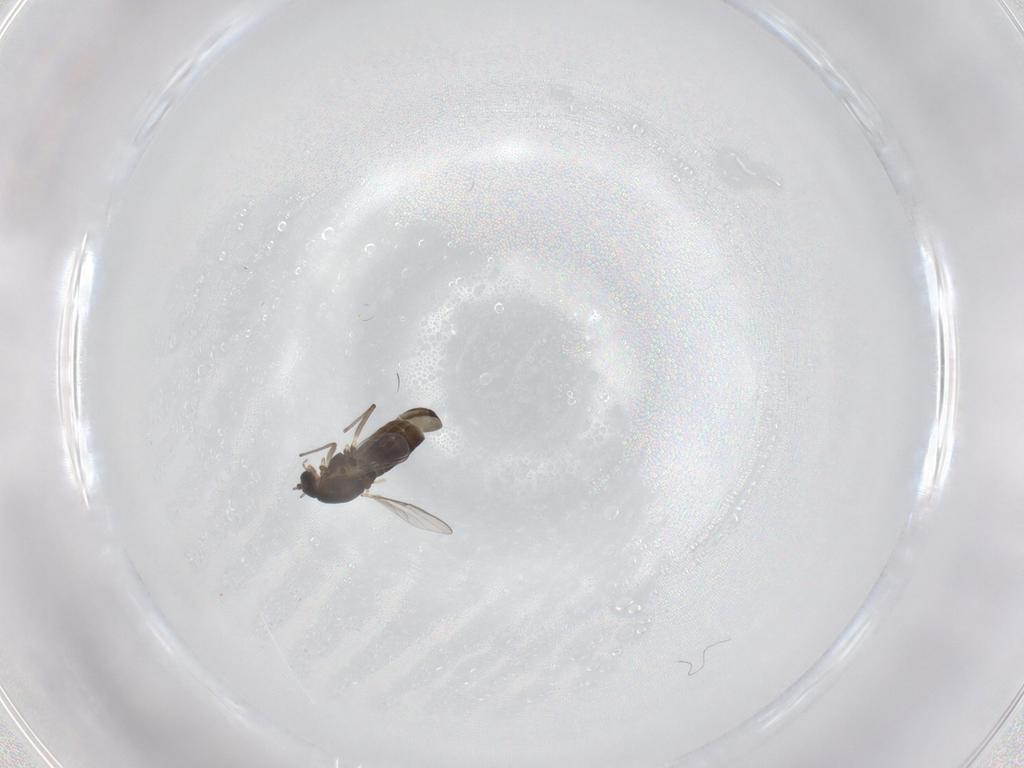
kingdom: Animalia
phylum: Arthropoda
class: Insecta
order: Diptera
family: Chironomidae
